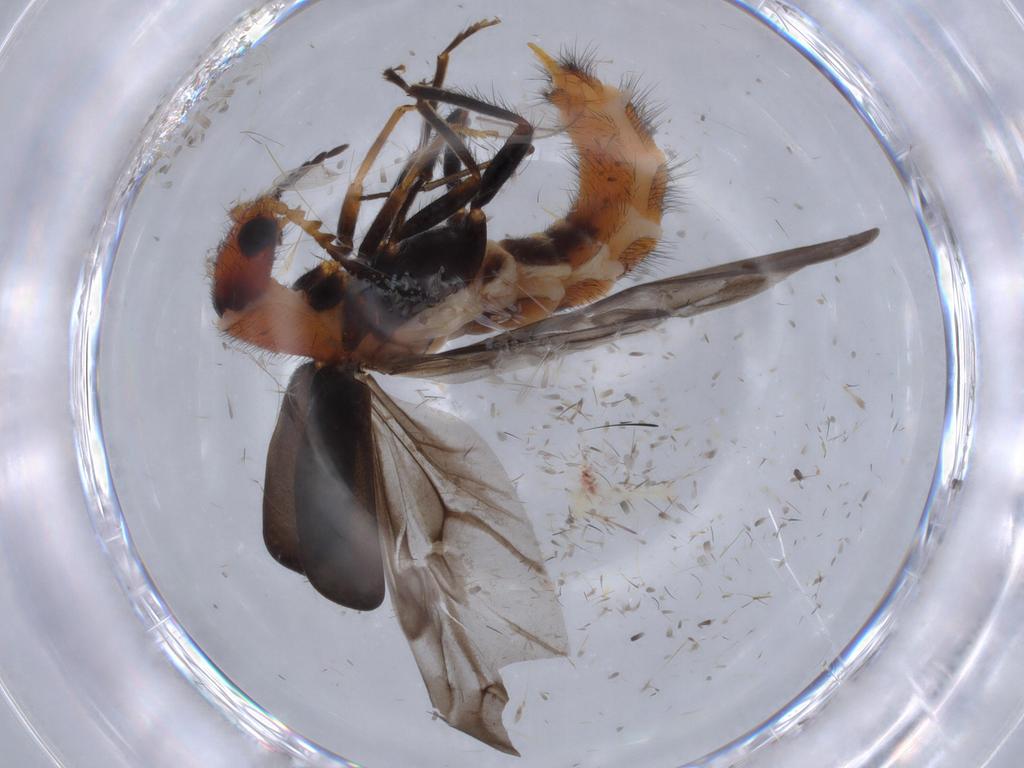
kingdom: Animalia
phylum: Arthropoda
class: Insecta
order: Coleoptera
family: Melyridae
